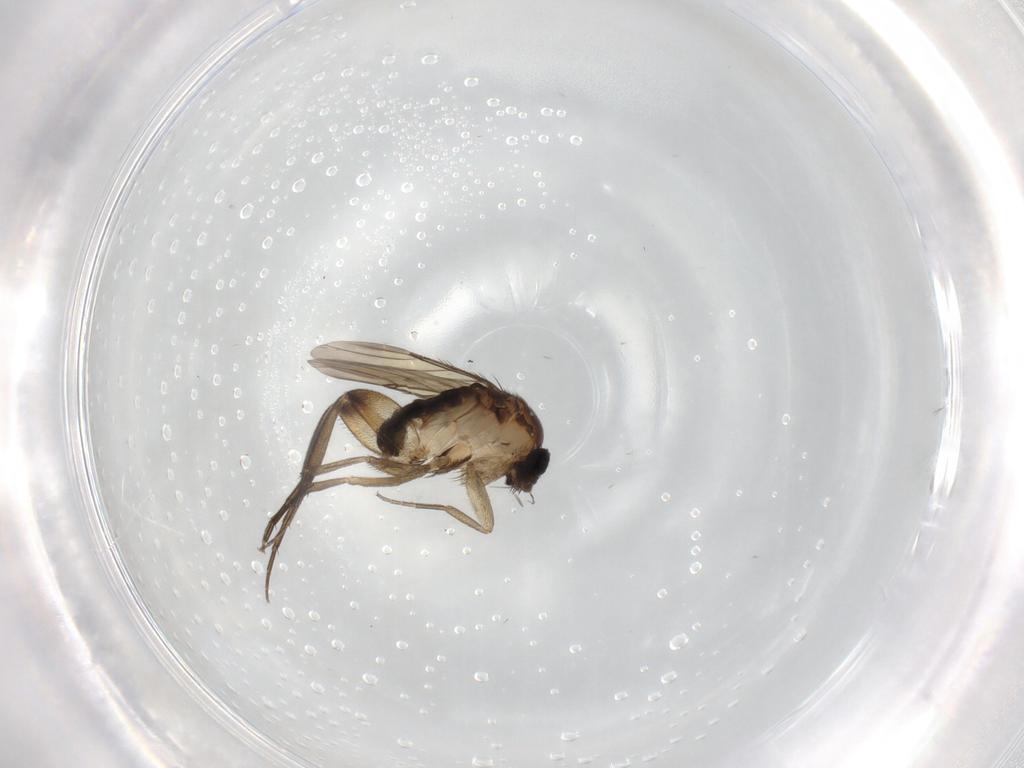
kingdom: Animalia
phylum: Arthropoda
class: Insecta
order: Diptera
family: Phoridae
